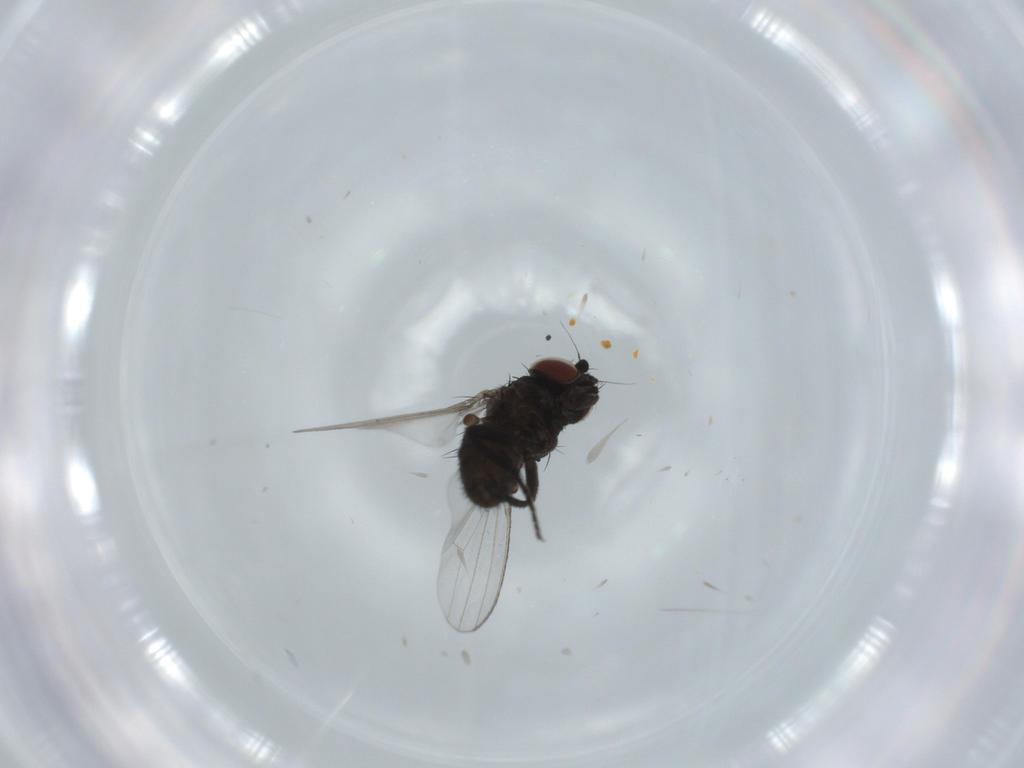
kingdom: Animalia
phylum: Arthropoda
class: Insecta
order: Diptera
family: Milichiidae
